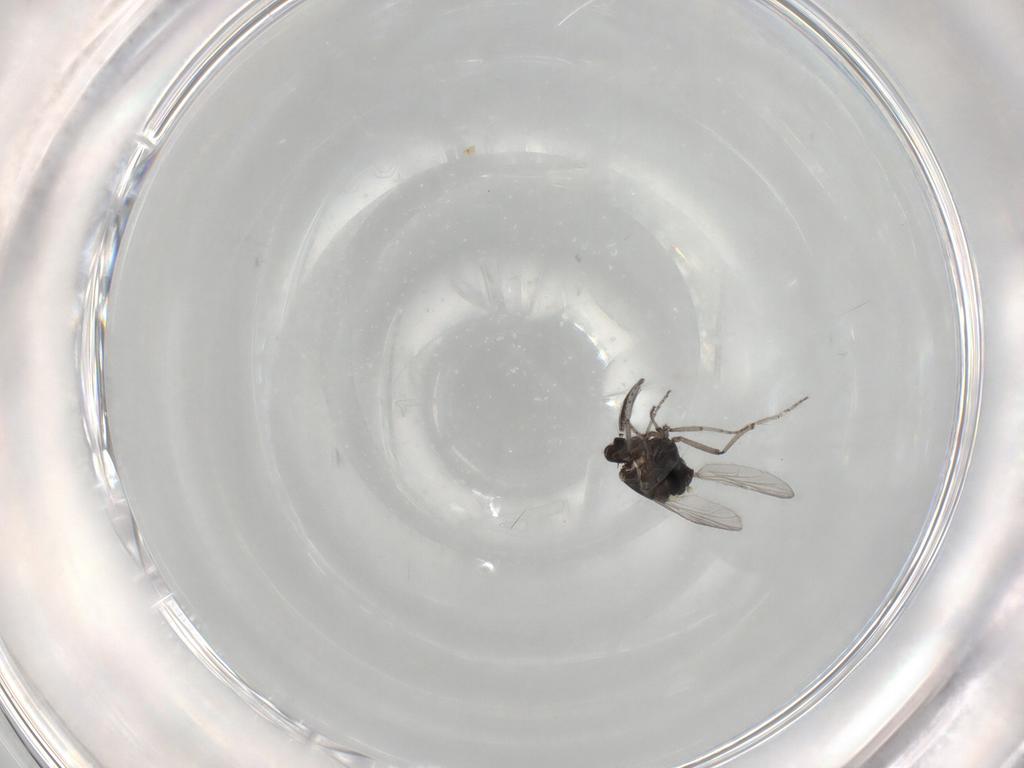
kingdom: Animalia
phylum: Arthropoda
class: Insecta
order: Diptera
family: Ceratopogonidae
